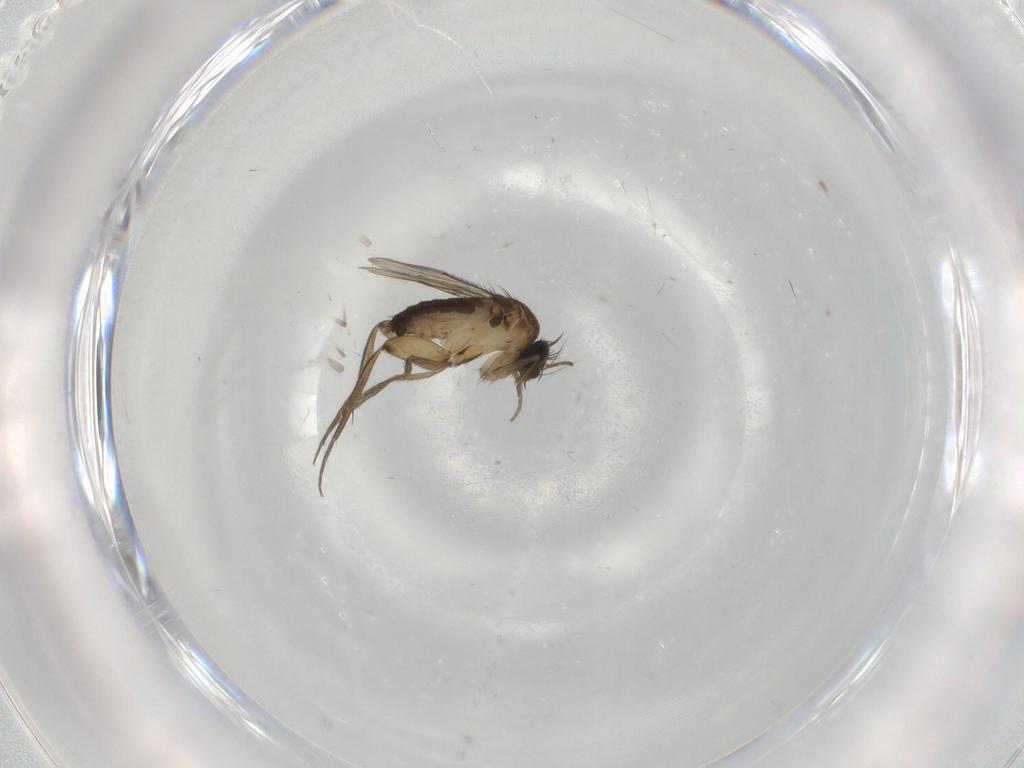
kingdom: Animalia
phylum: Arthropoda
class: Insecta
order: Diptera
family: Phoridae
